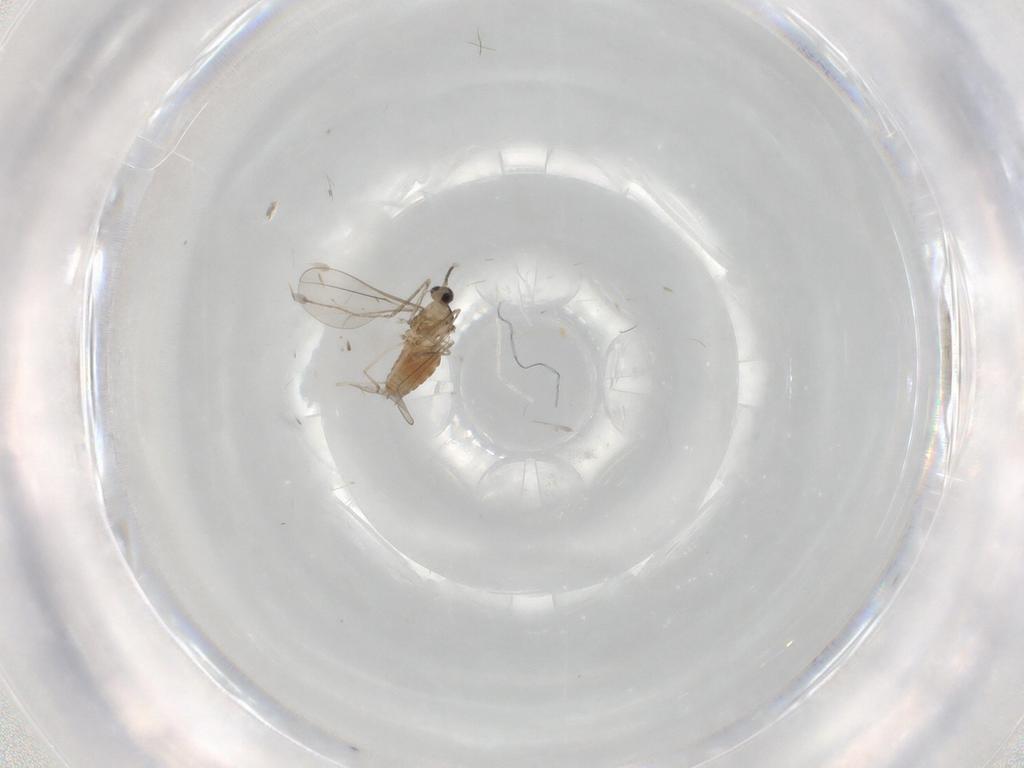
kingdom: Animalia
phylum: Arthropoda
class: Insecta
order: Diptera
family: Cecidomyiidae
